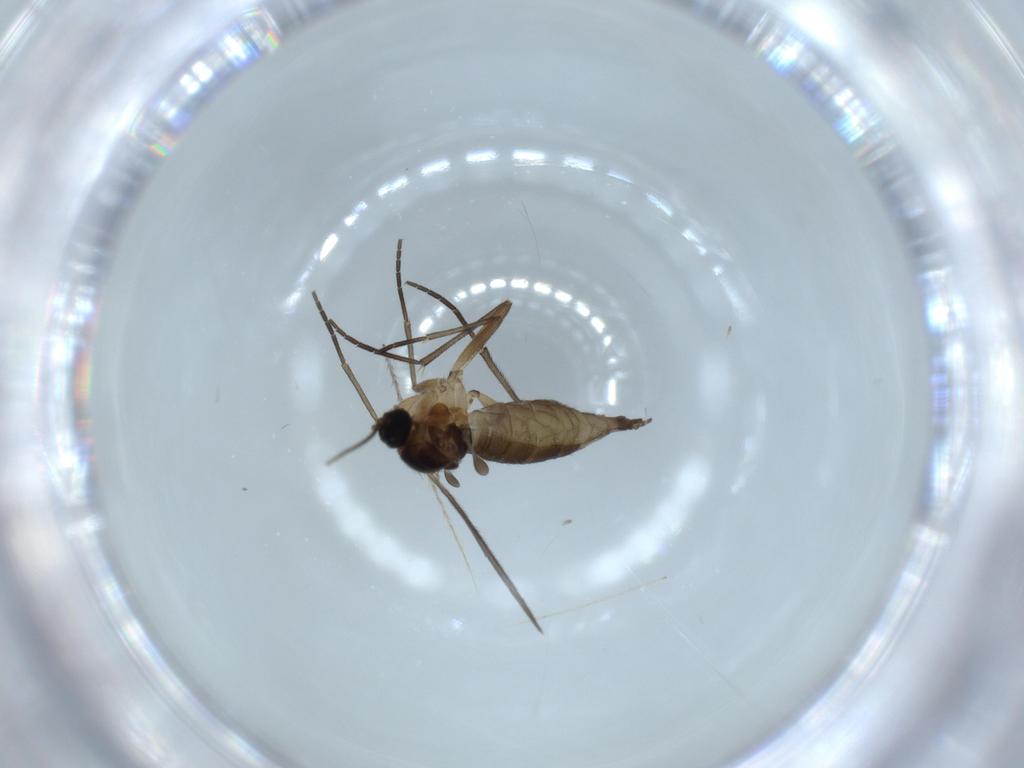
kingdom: Animalia
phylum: Arthropoda
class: Insecta
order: Diptera
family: Sciaridae
